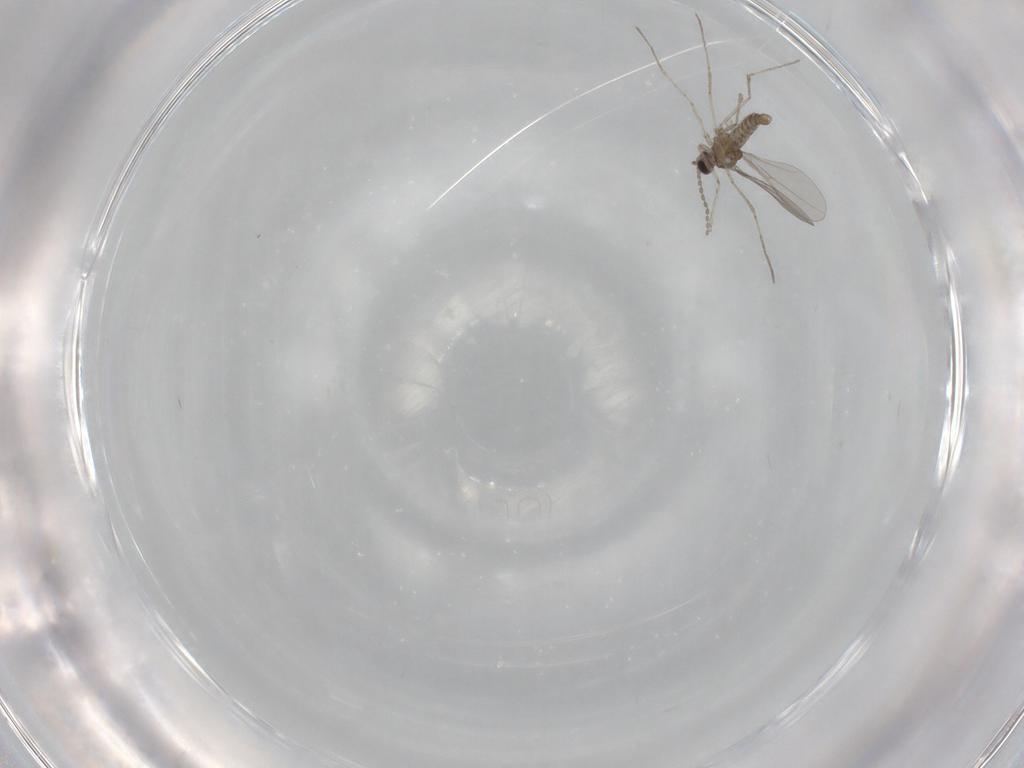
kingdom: Animalia
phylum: Arthropoda
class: Insecta
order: Diptera
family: Cecidomyiidae
